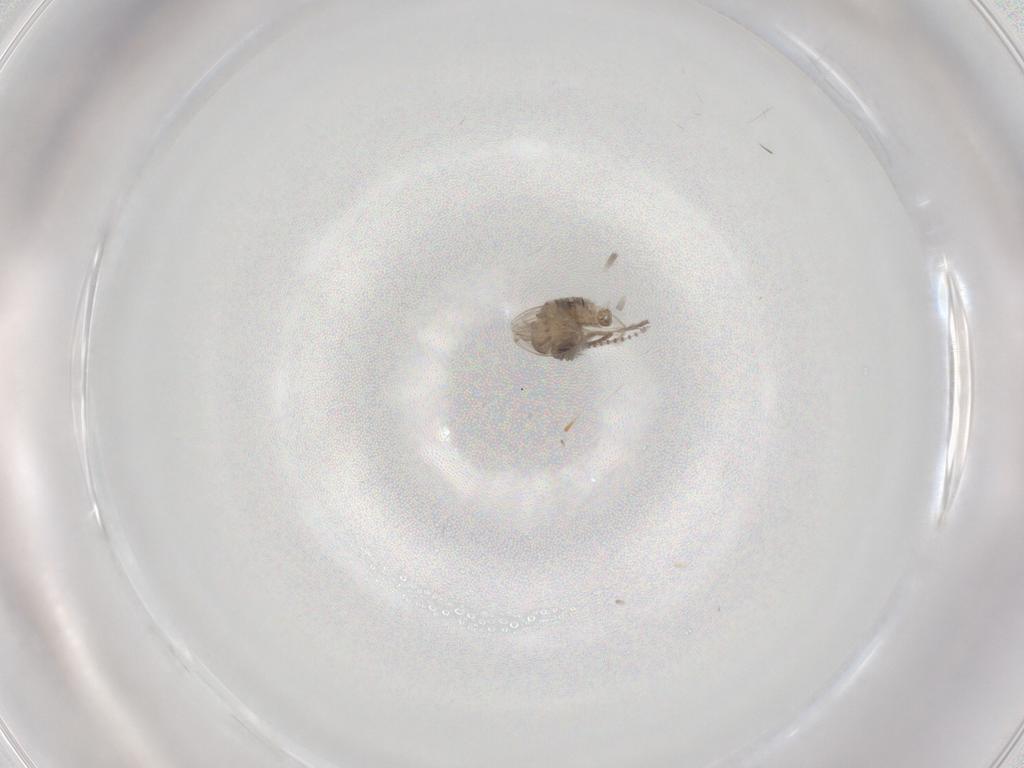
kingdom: Animalia
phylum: Arthropoda
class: Insecta
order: Diptera
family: Psychodidae
